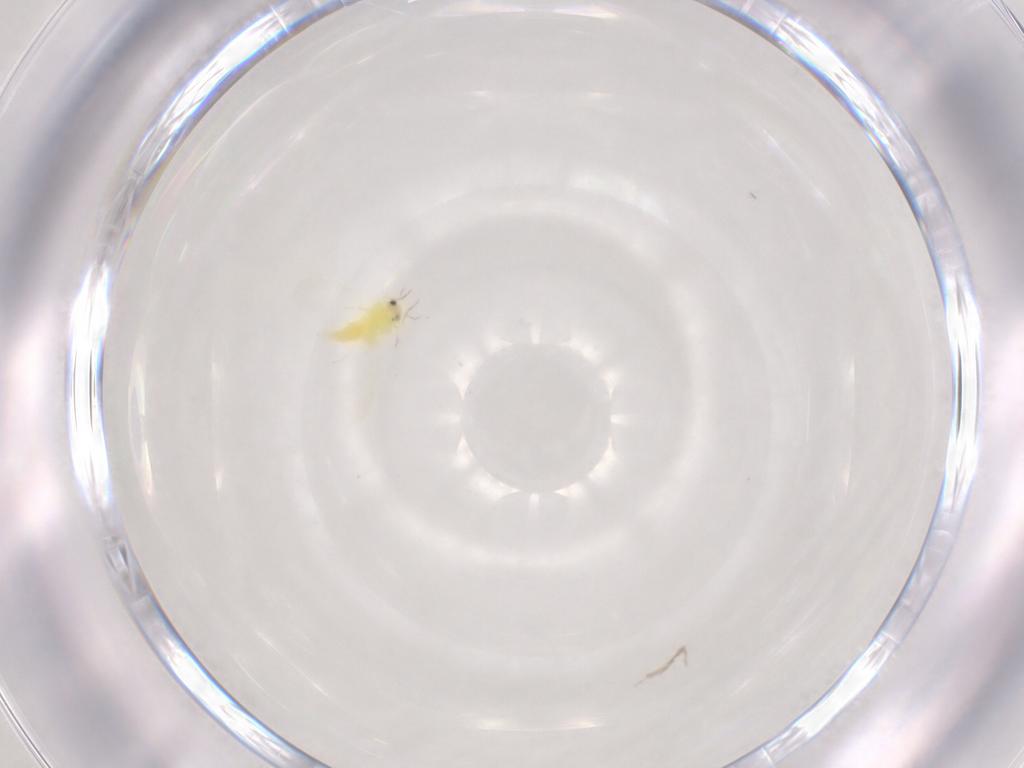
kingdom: Animalia
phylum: Arthropoda
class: Insecta
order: Hemiptera
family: Aleyrodidae
